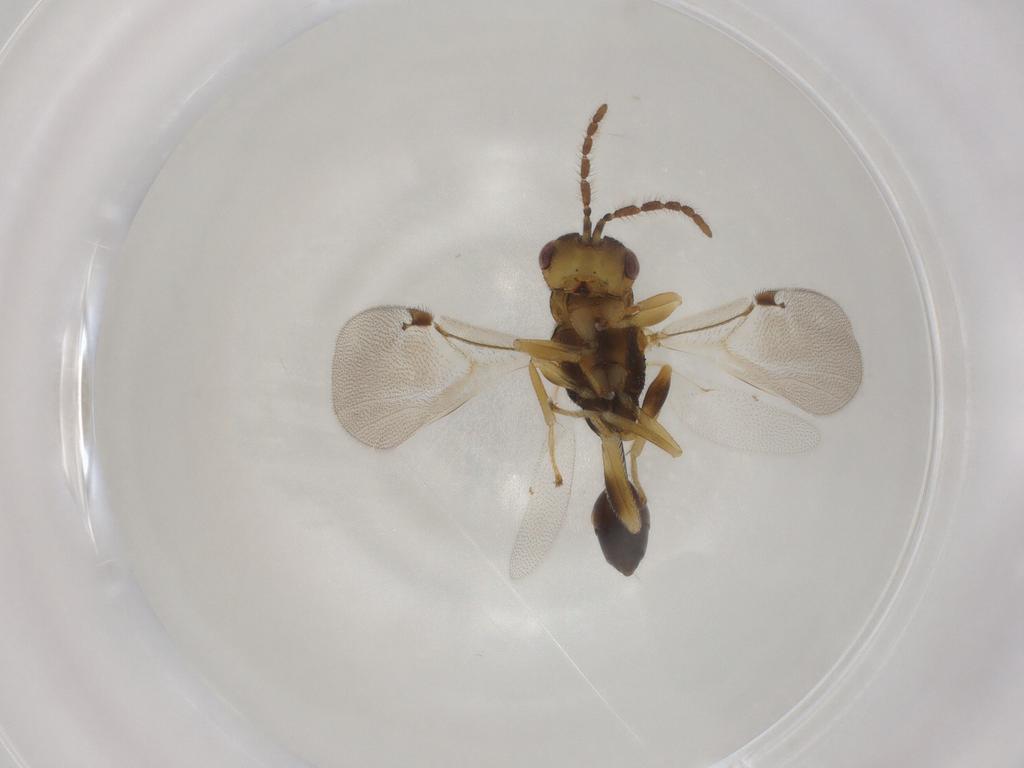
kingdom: Animalia
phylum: Arthropoda
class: Insecta
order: Hymenoptera
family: Eurytomidae
